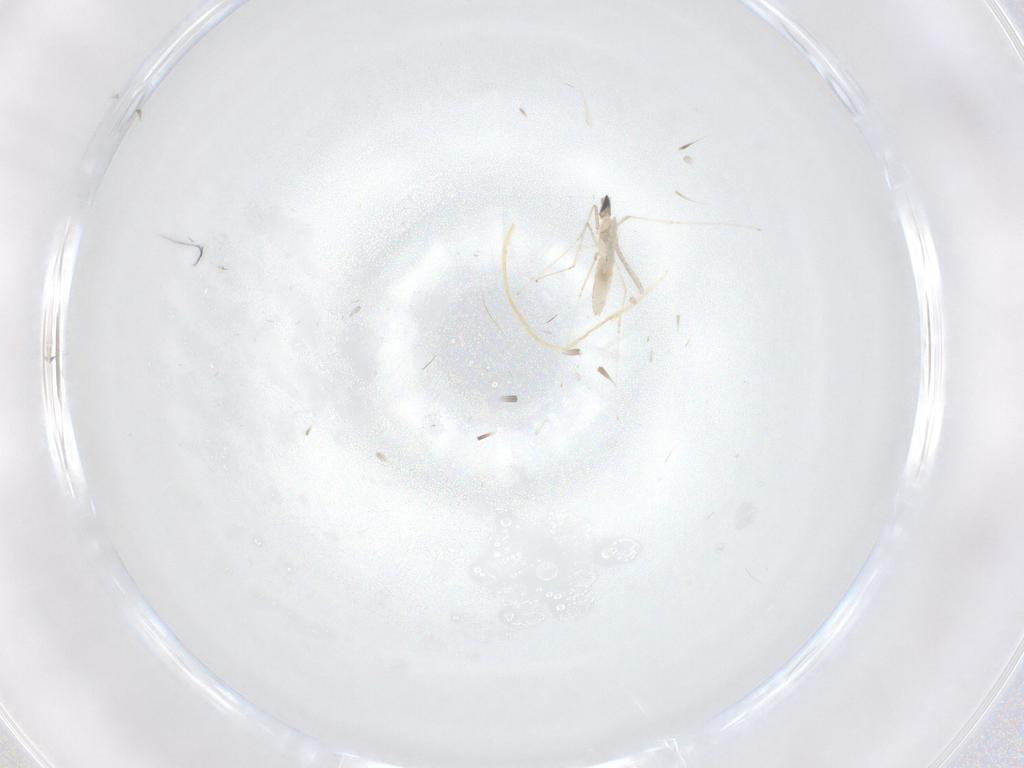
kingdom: Animalia
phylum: Arthropoda
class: Insecta
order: Diptera
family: Cecidomyiidae
